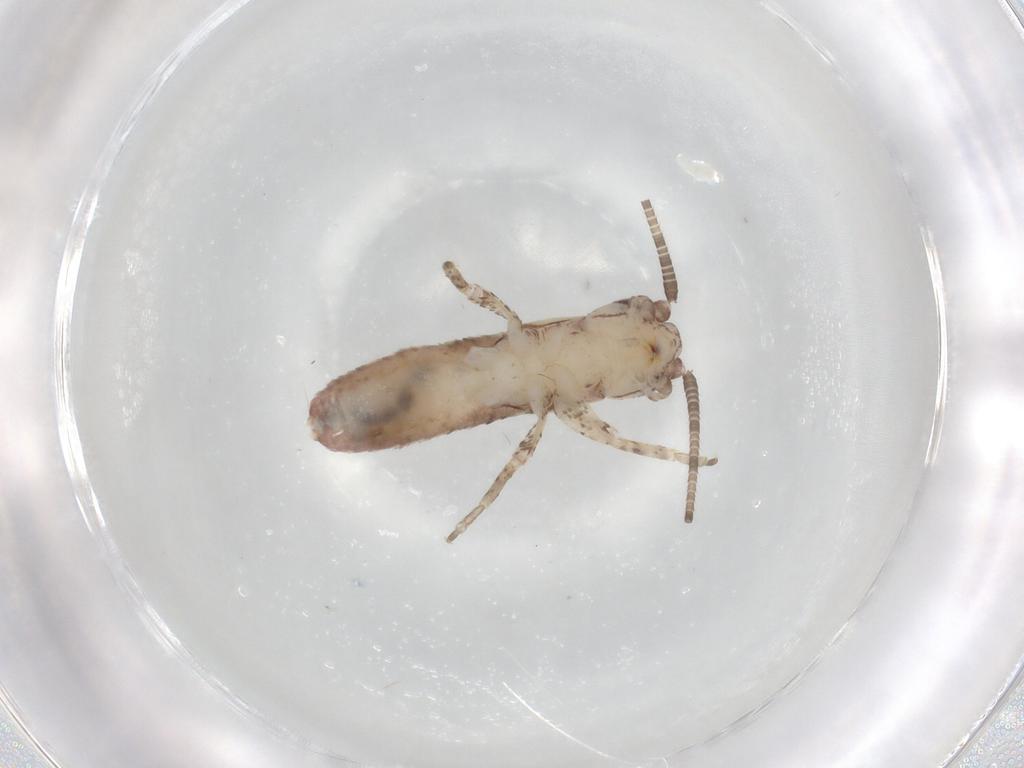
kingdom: Animalia
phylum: Arthropoda
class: Insecta
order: Orthoptera
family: Mogoplistidae
